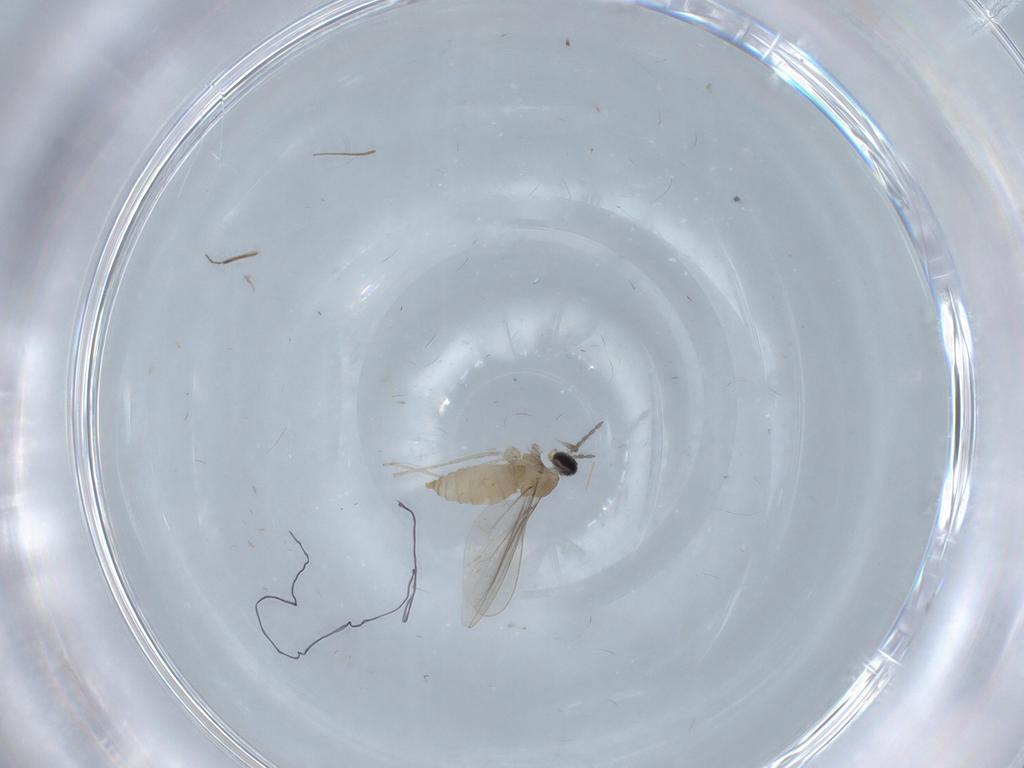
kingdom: Animalia
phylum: Arthropoda
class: Insecta
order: Diptera
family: Cecidomyiidae
